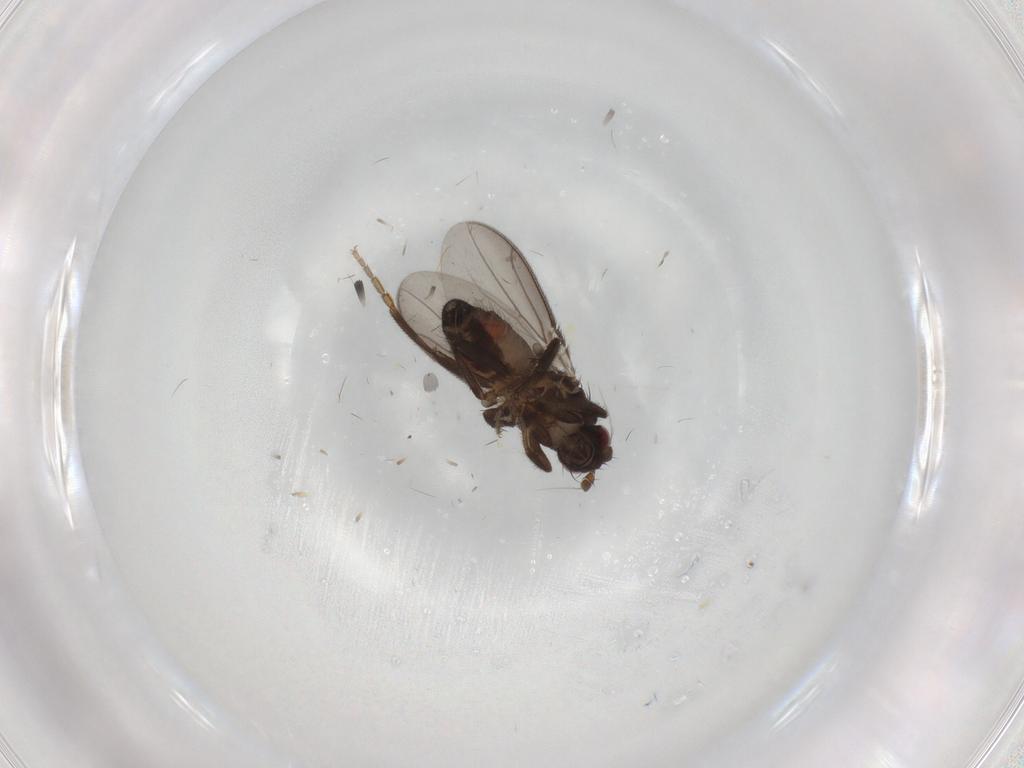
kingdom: Animalia
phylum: Arthropoda
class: Insecta
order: Diptera
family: Sphaeroceridae
